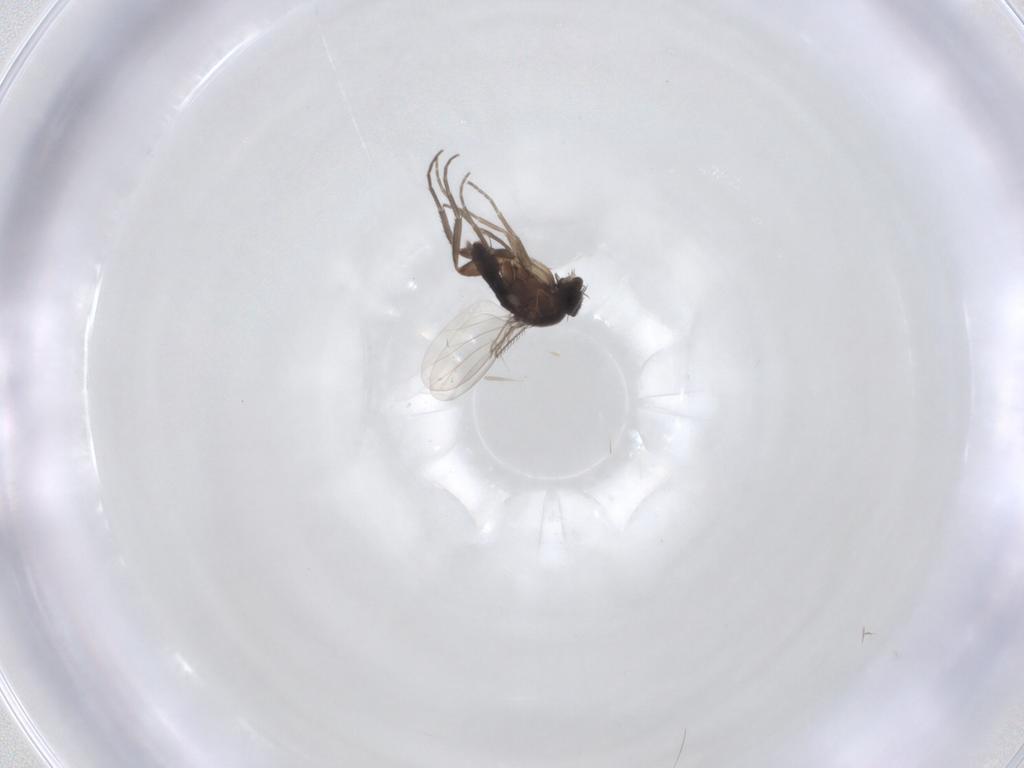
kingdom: Animalia
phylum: Arthropoda
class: Insecta
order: Diptera
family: Phoridae
